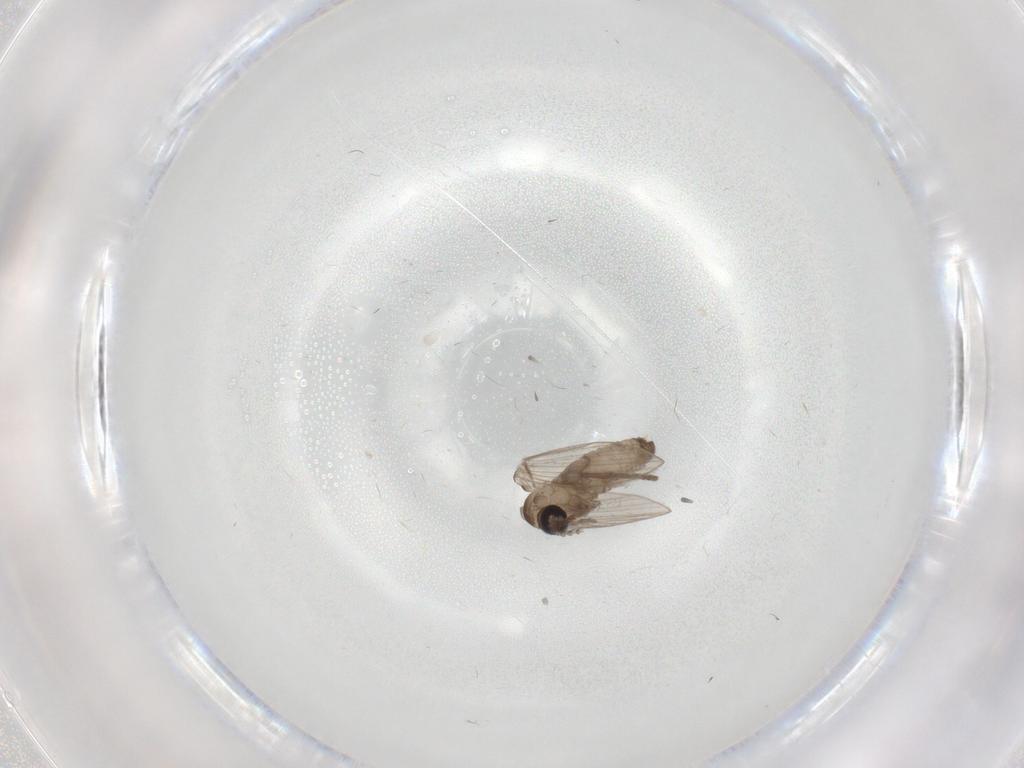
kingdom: Animalia
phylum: Arthropoda
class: Insecta
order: Diptera
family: Psychodidae
